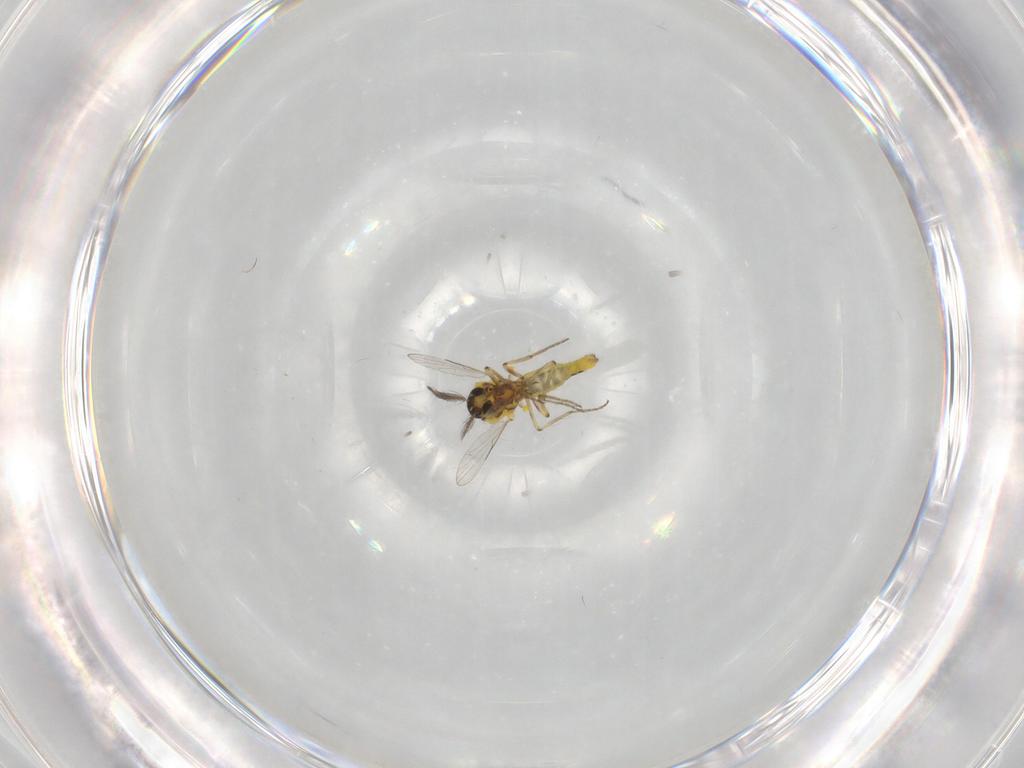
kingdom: Animalia
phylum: Arthropoda
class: Insecta
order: Diptera
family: Ceratopogonidae
